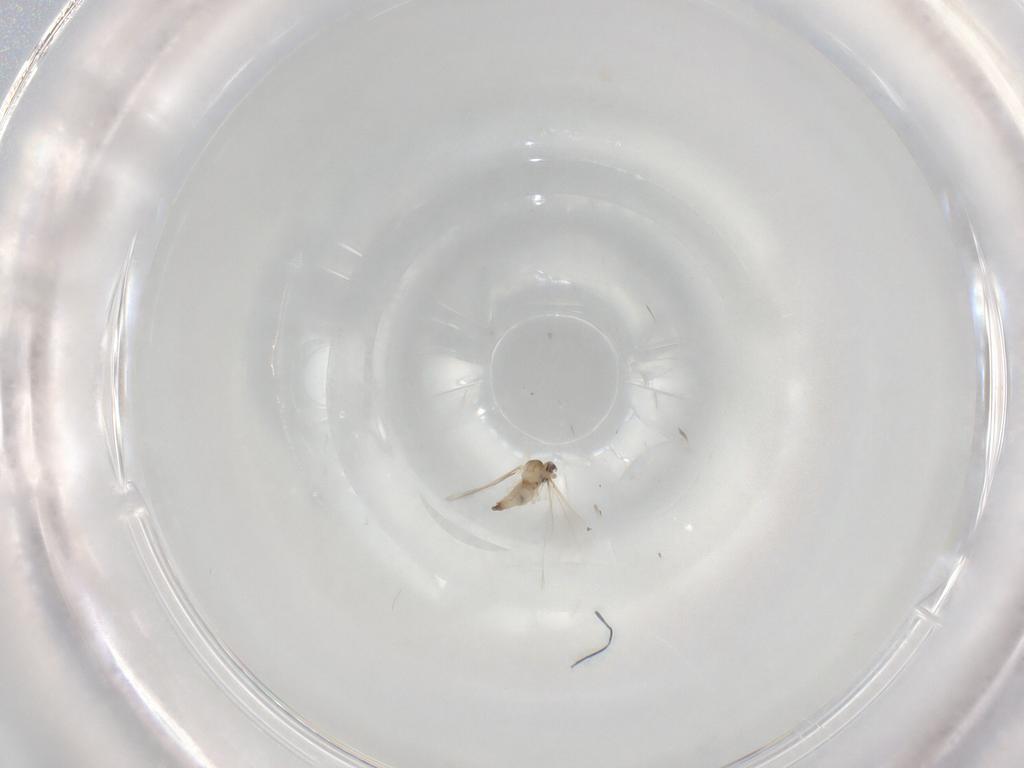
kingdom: Animalia
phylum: Arthropoda
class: Insecta
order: Diptera
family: Cecidomyiidae
